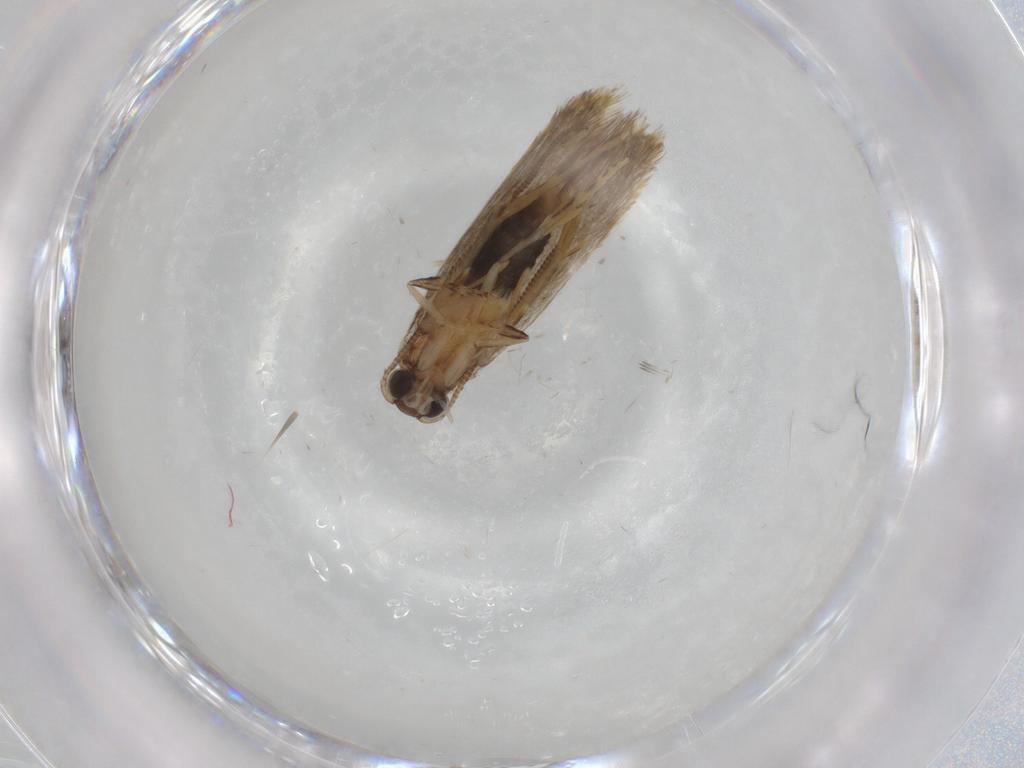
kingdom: Animalia
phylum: Arthropoda
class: Insecta
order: Lepidoptera
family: Tineidae
